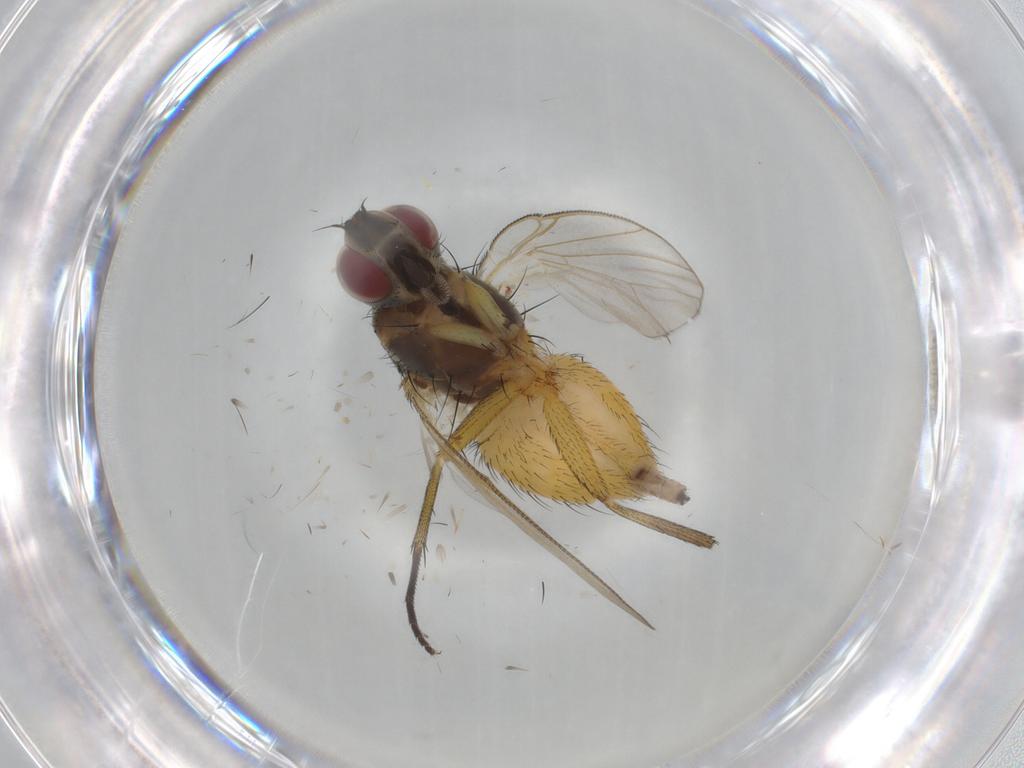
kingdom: Animalia
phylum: Arthropoda
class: Insecta
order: Diptera
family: Muscidae
